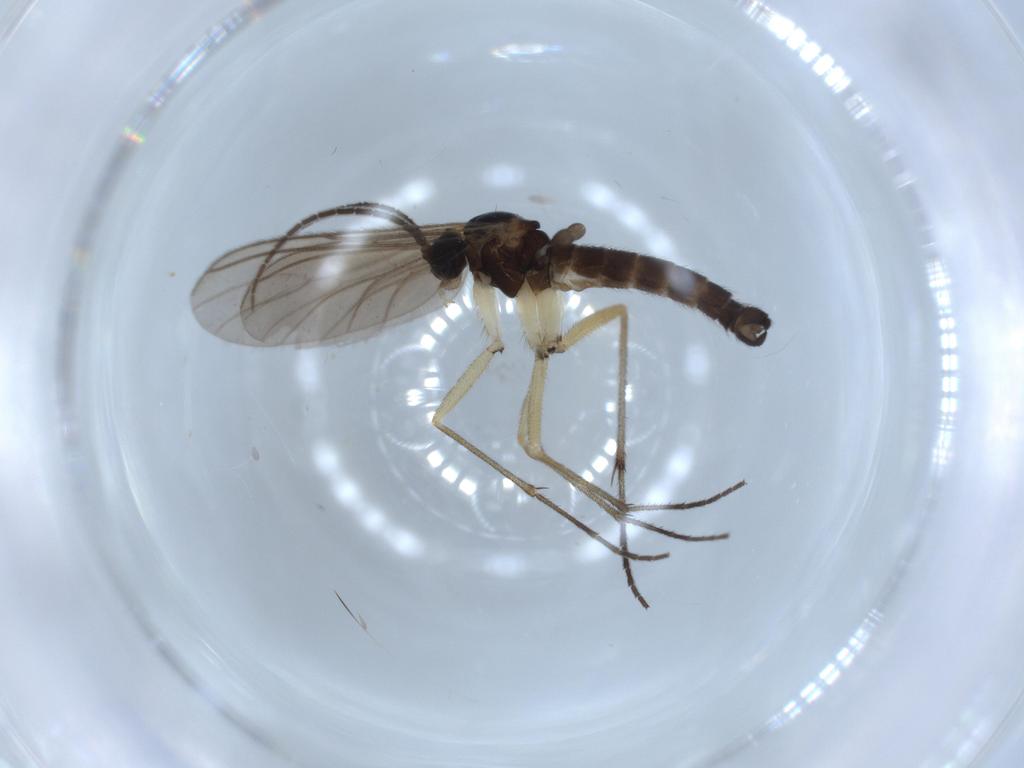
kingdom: Animalia
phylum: Arthropoda
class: Insecta
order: Diptera
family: Sciaridae
